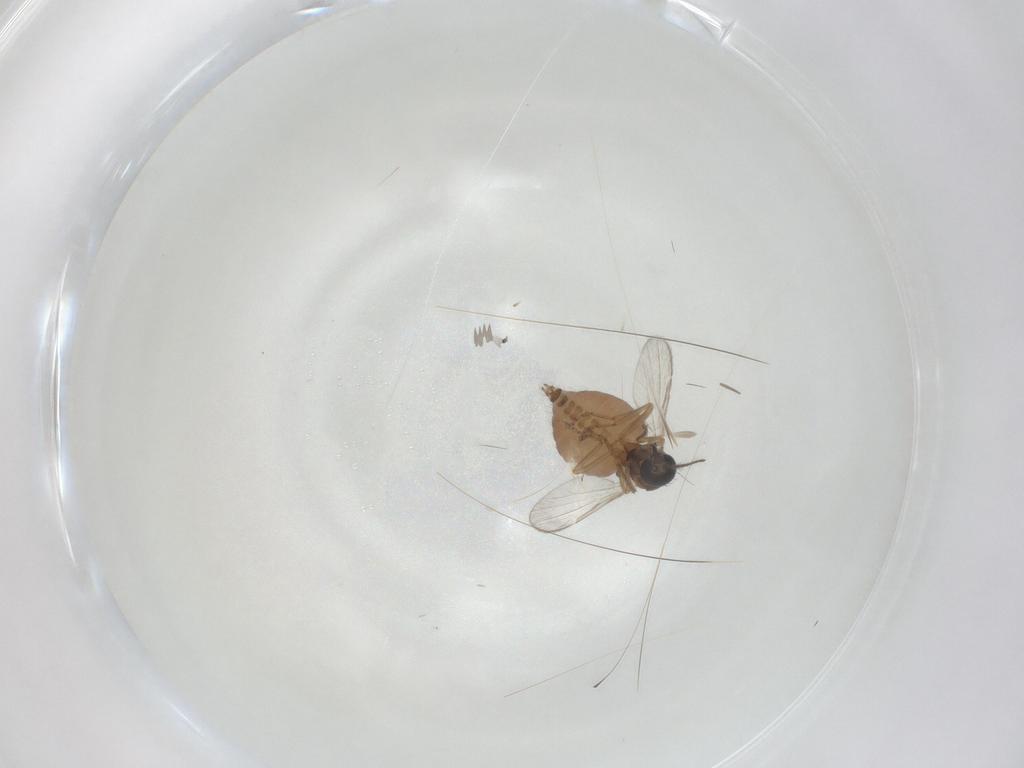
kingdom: Animalia
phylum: Arthropoda
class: Insecta
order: Diptera
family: Ceratopogonidae
